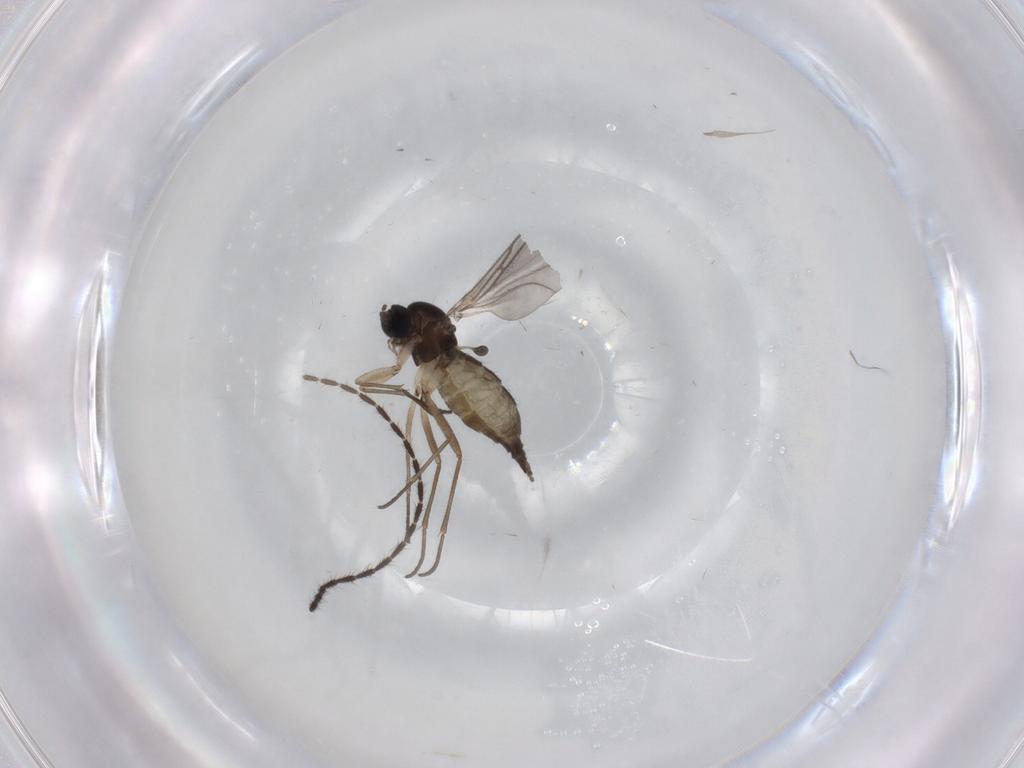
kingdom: Animalia
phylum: Arthropoda
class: Insecta
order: Diptera
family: Sciaridae
